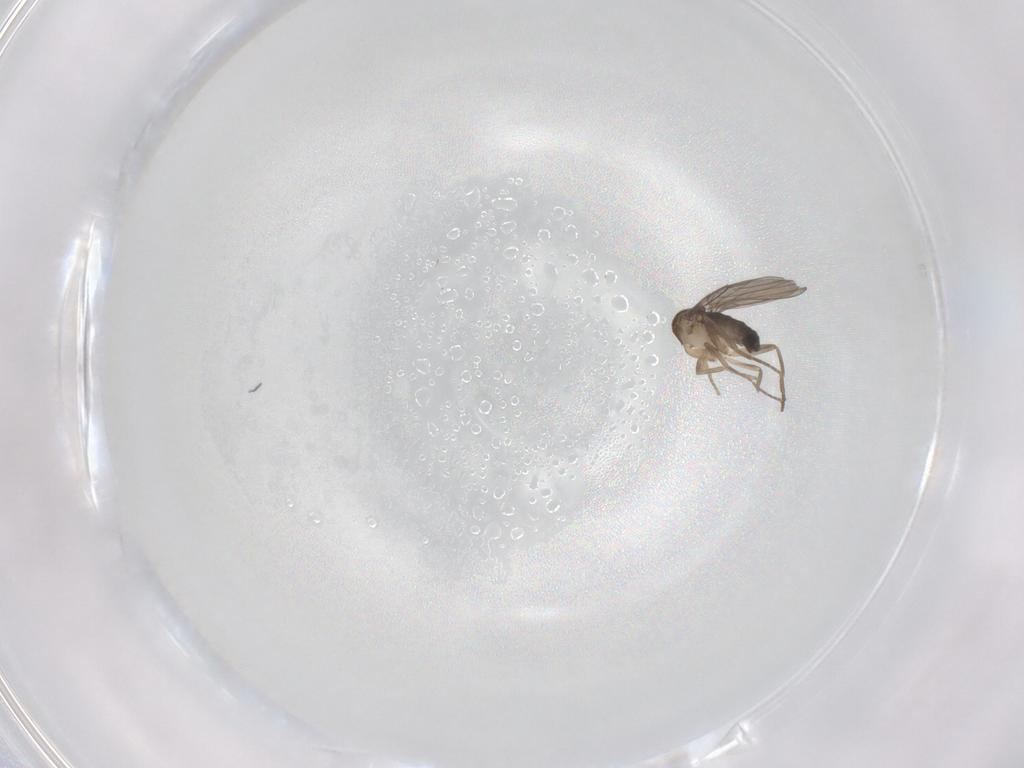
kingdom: Animalia
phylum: Arthropoda
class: Insecta
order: Diptera
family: Phoridae
